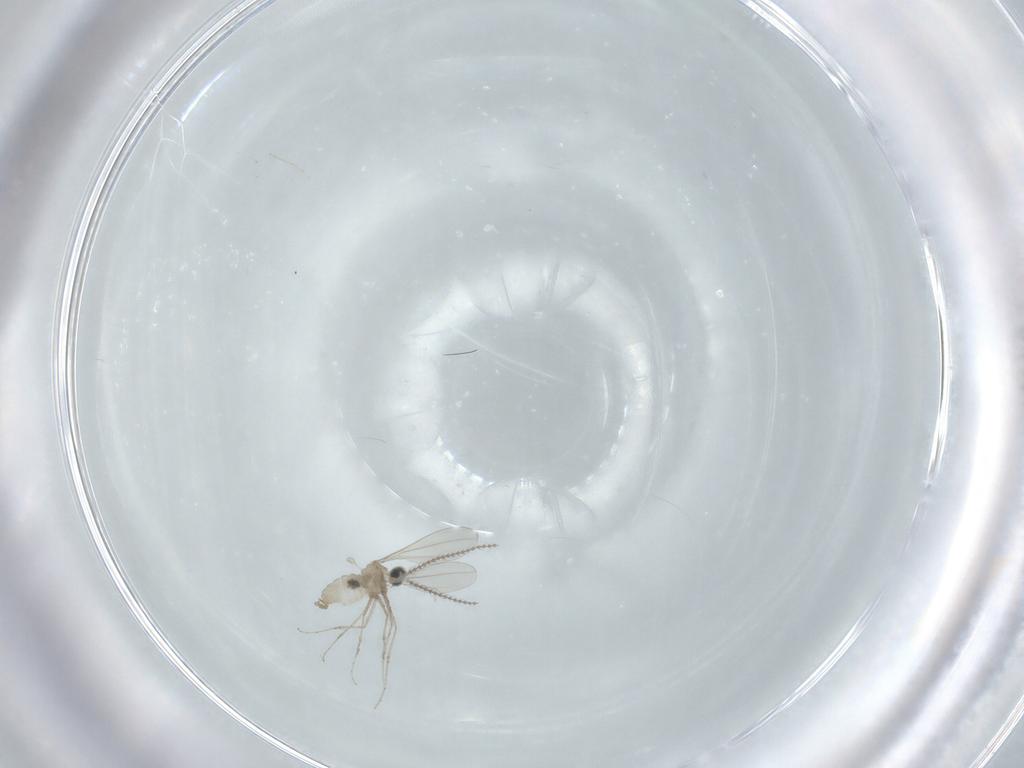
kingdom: Animalia
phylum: Arthropoda
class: Insecta
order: Diptera
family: Cecidomyiidae
